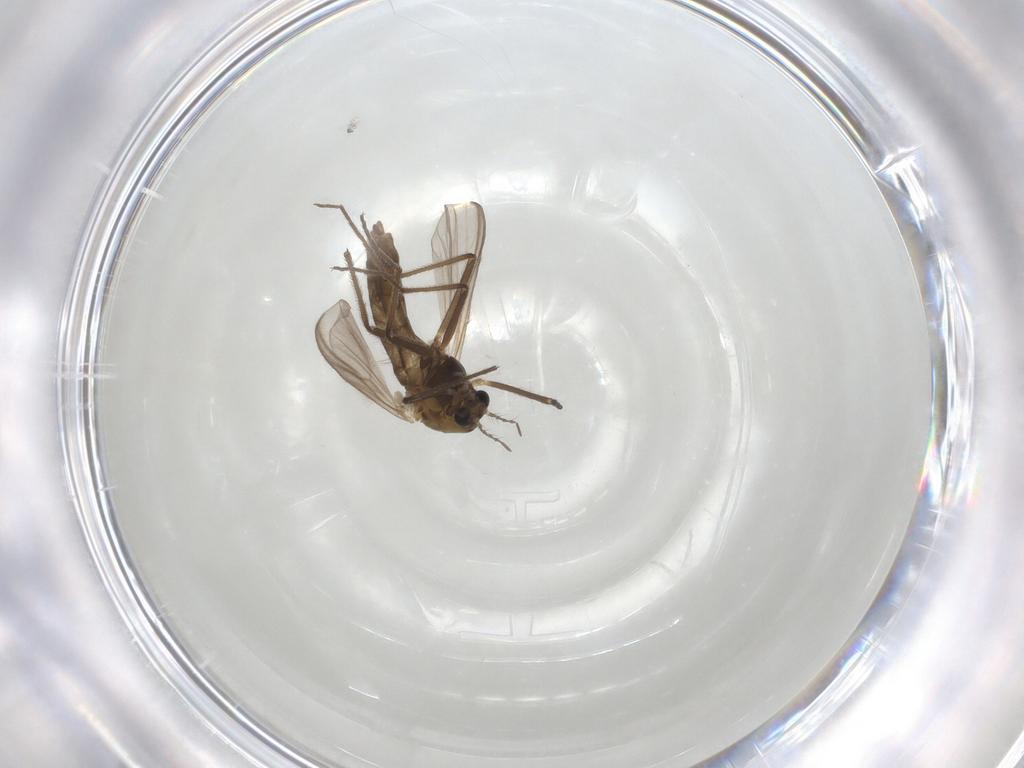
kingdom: Animalia
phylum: Arthropoda
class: Insecta
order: Diptera
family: Chironomidae
